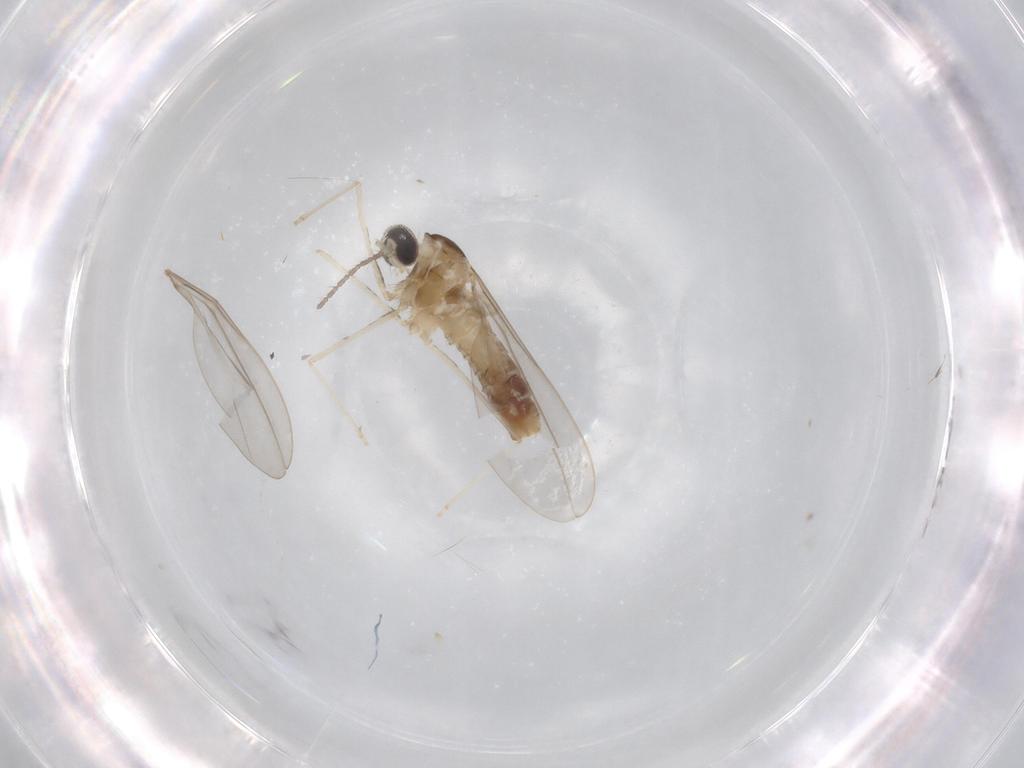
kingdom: Animalia
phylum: Arthropoda
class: Insecta
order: Diptera
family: Cecidomyiidae
